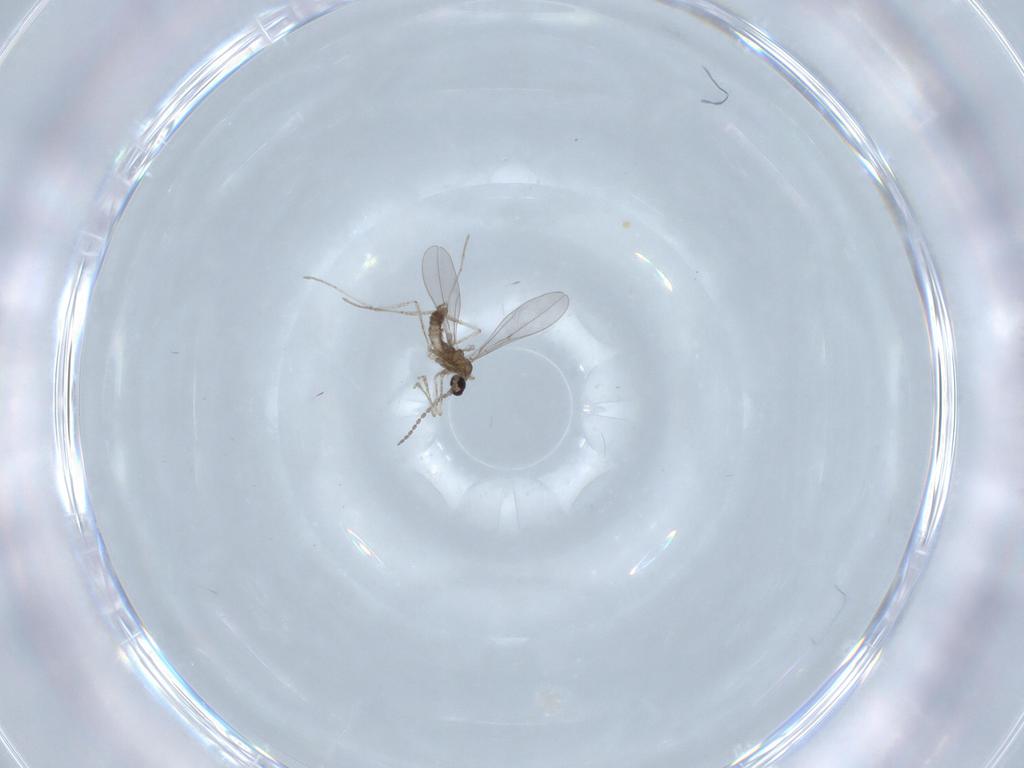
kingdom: Animalia
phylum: Arthropoda
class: Insecta
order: Diptera
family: Cecidomyiidae
